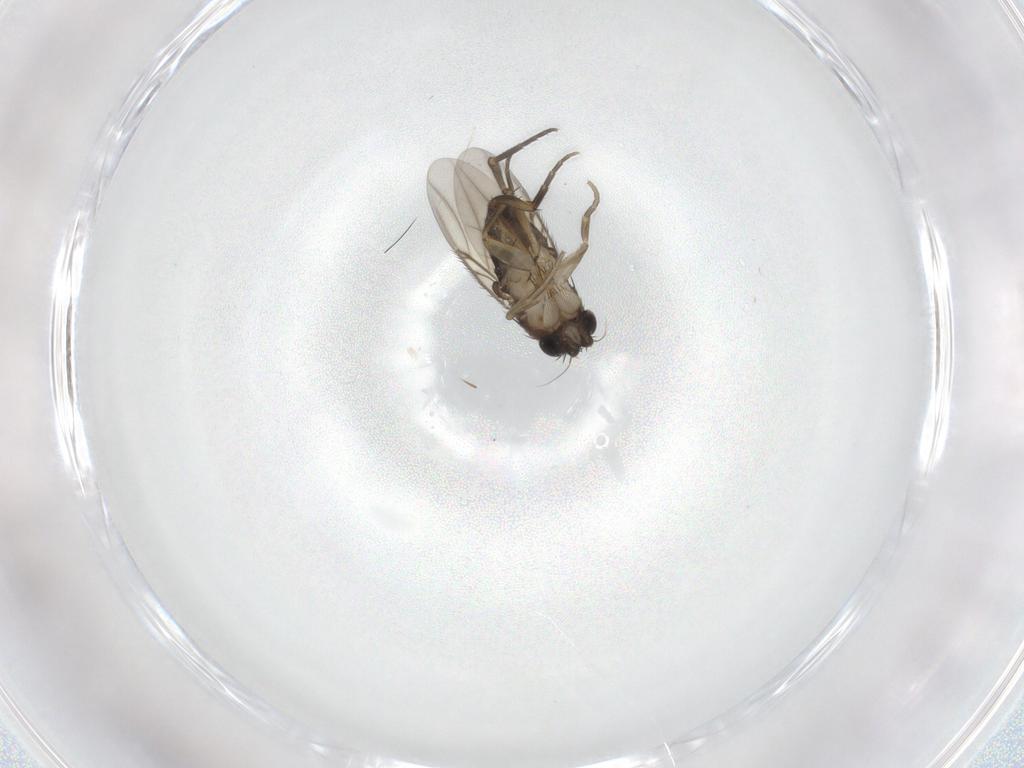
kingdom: Animalia
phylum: Arthropoda
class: Insecta
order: Diptera
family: Phoridae
